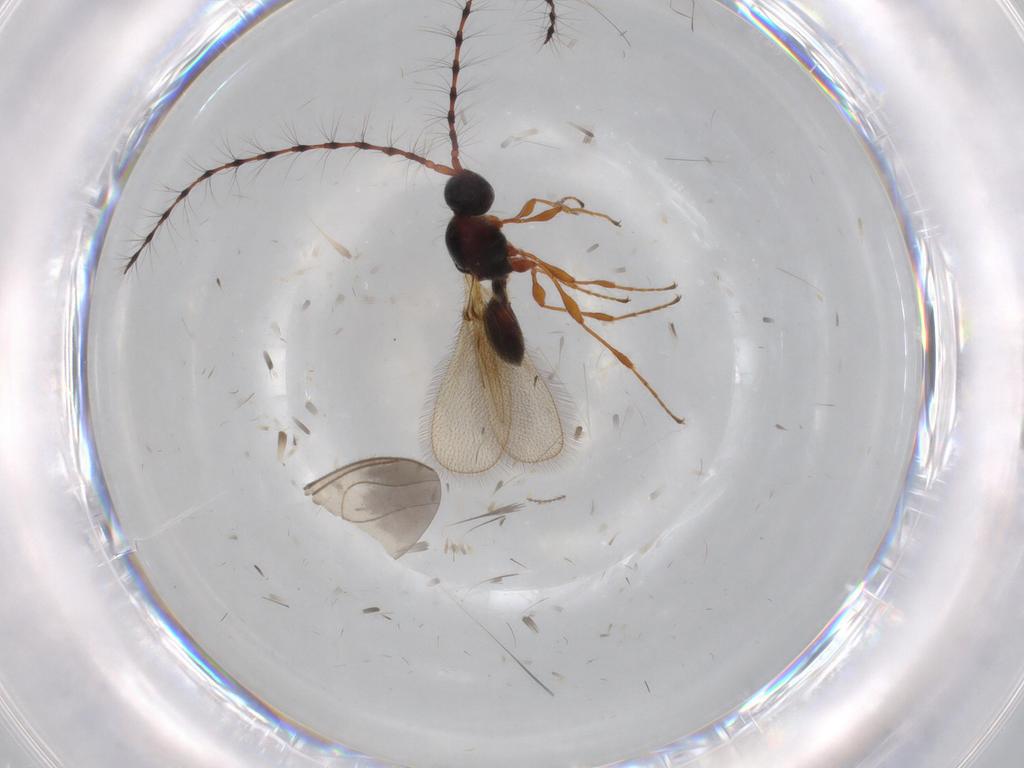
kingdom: Animalia
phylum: Arthropoda
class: Insecta
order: Hymenoptera
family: Diapriidae
